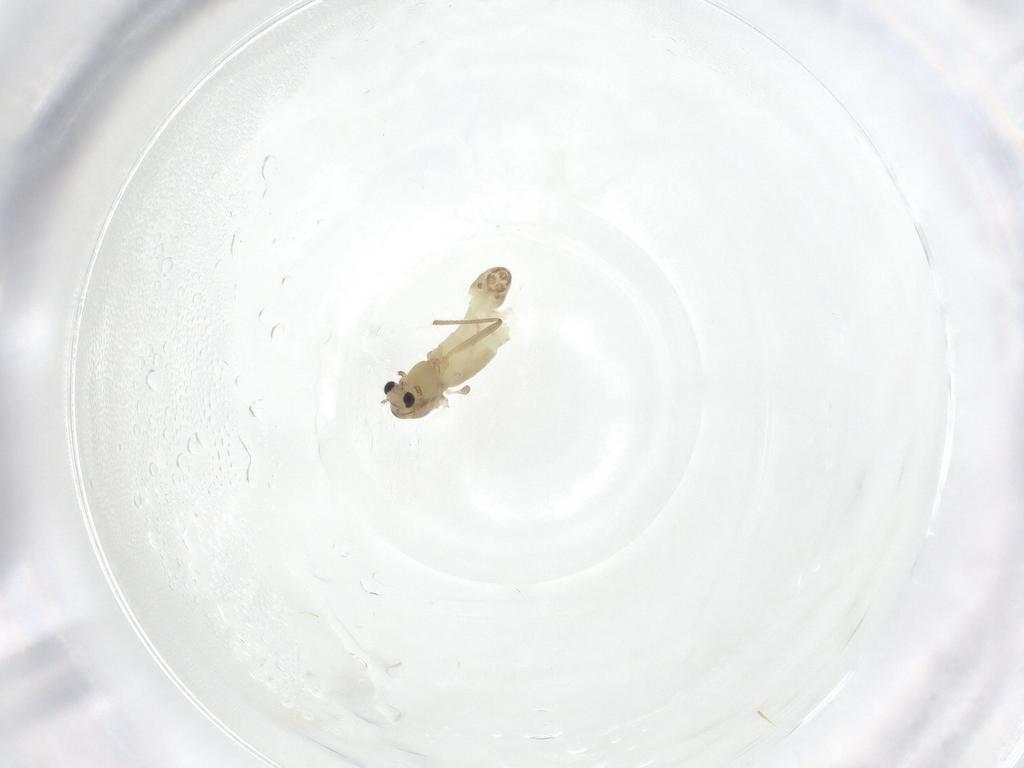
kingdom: Animalia
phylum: Arthropoda
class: Insecta
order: Diptera
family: Chironomidae
